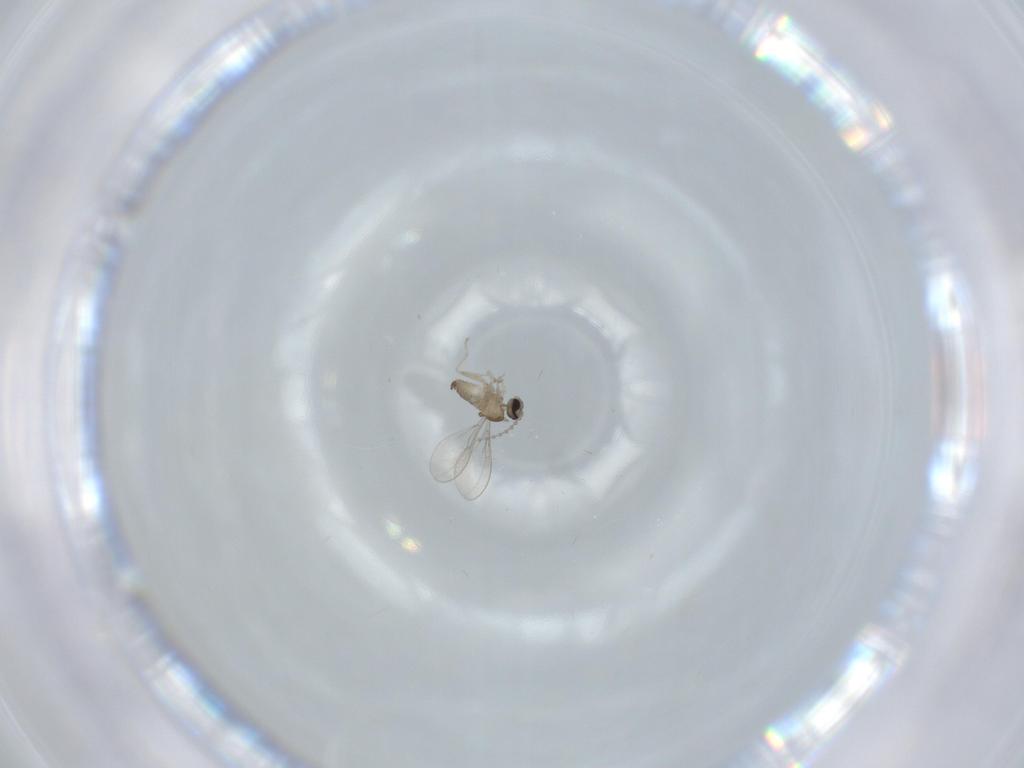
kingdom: Animalia
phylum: Arthropoda
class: Insecta
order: Diptera
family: Cecidomyiidae
